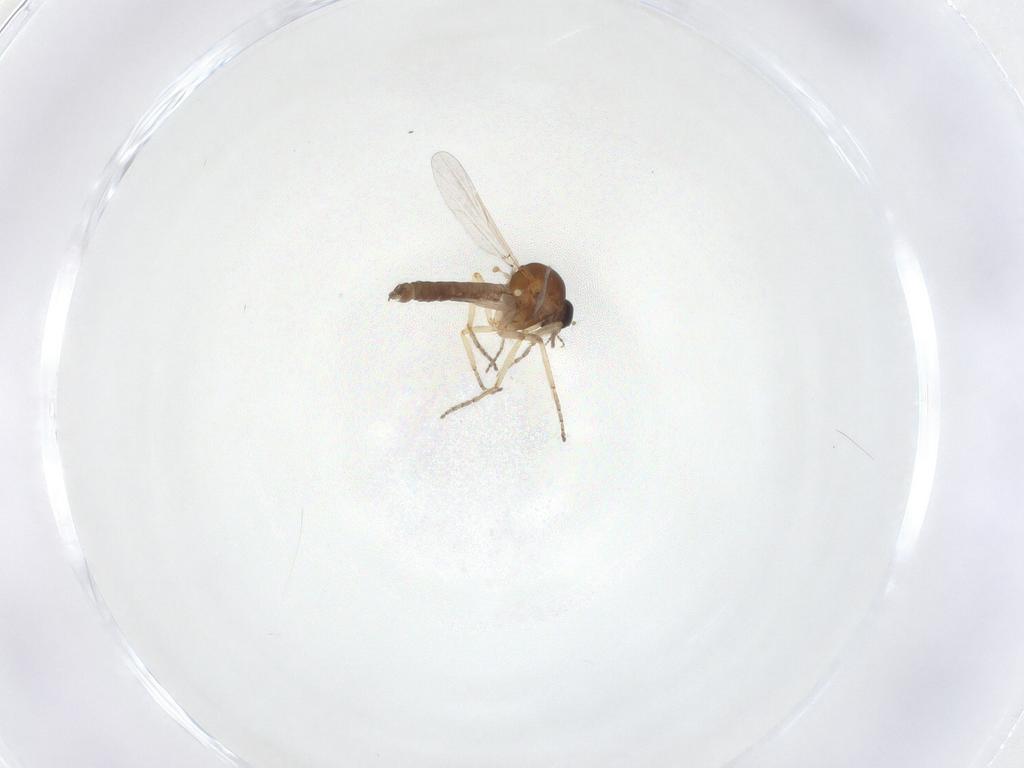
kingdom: Animalia
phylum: Arthropoda
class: Insecta
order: Diptera
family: Ceratopogonidae
